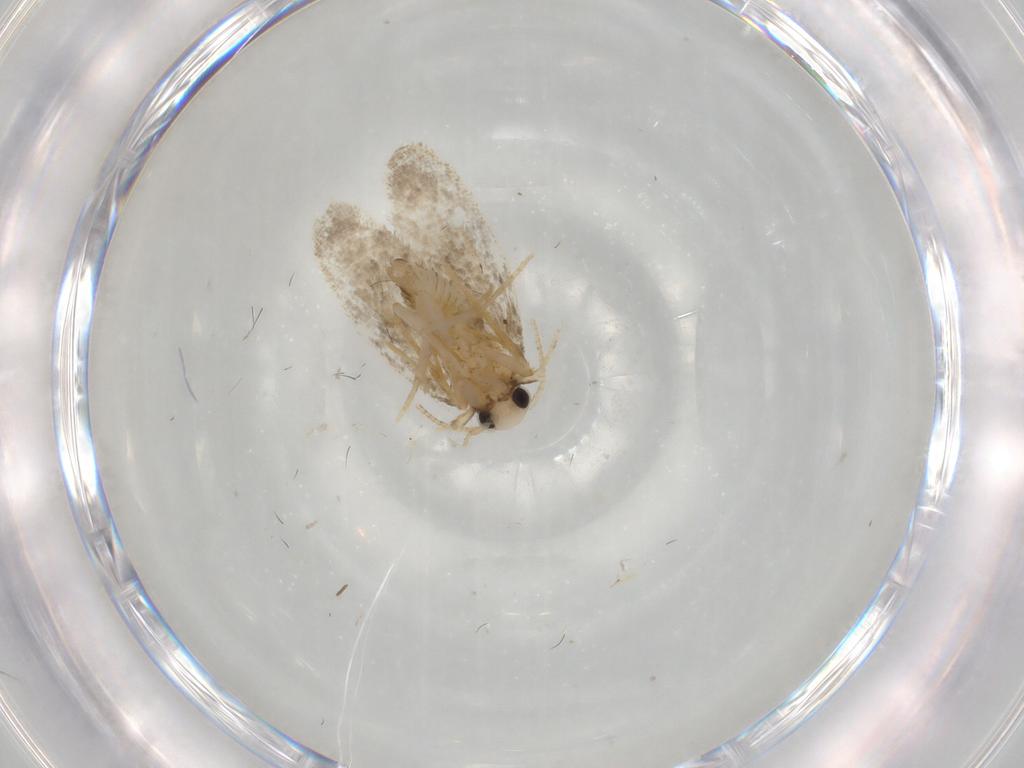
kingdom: Animalia
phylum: Arthropoda
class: Insecta
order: Lepidoptera
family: Psychidae
